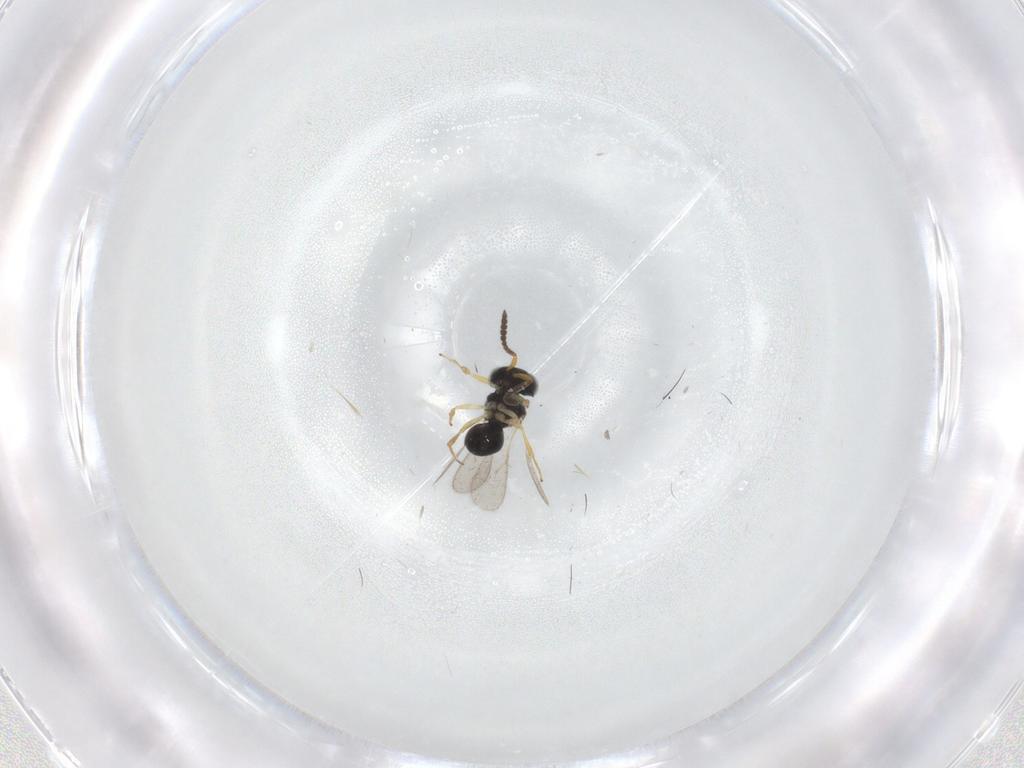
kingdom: Animalia
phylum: Arthropoda
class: Insecta
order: Hymenoptera
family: Scelionidae
